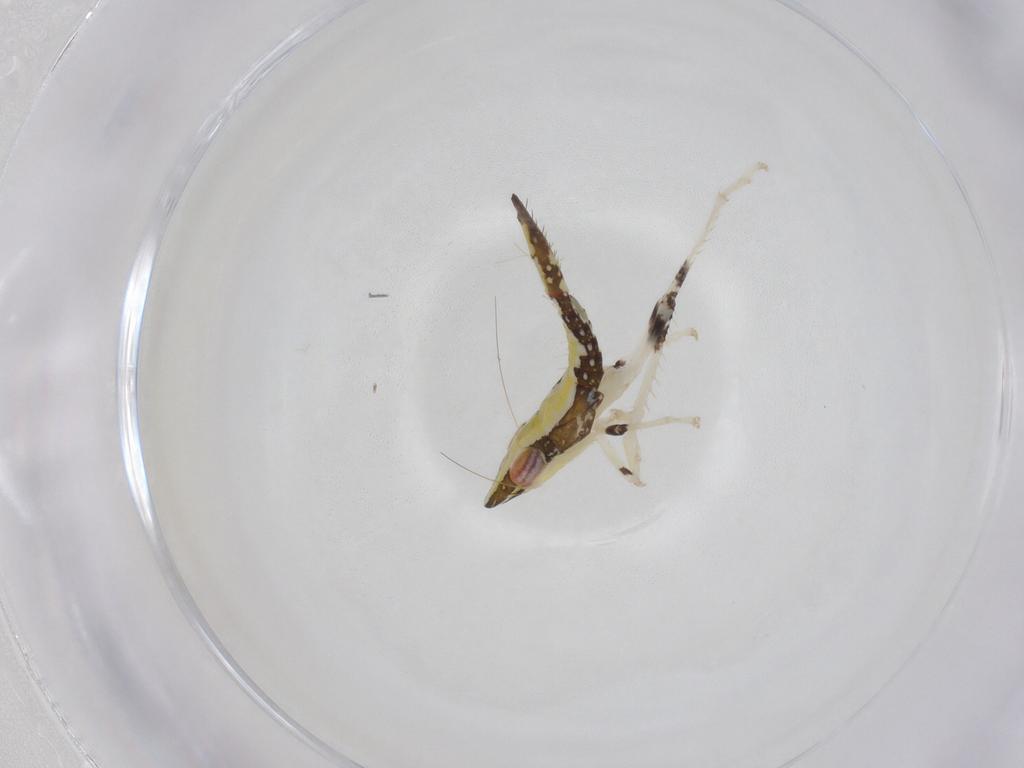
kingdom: Animalia
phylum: Arthropoda
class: Insecta
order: Hemiptera
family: Cicadellidae
